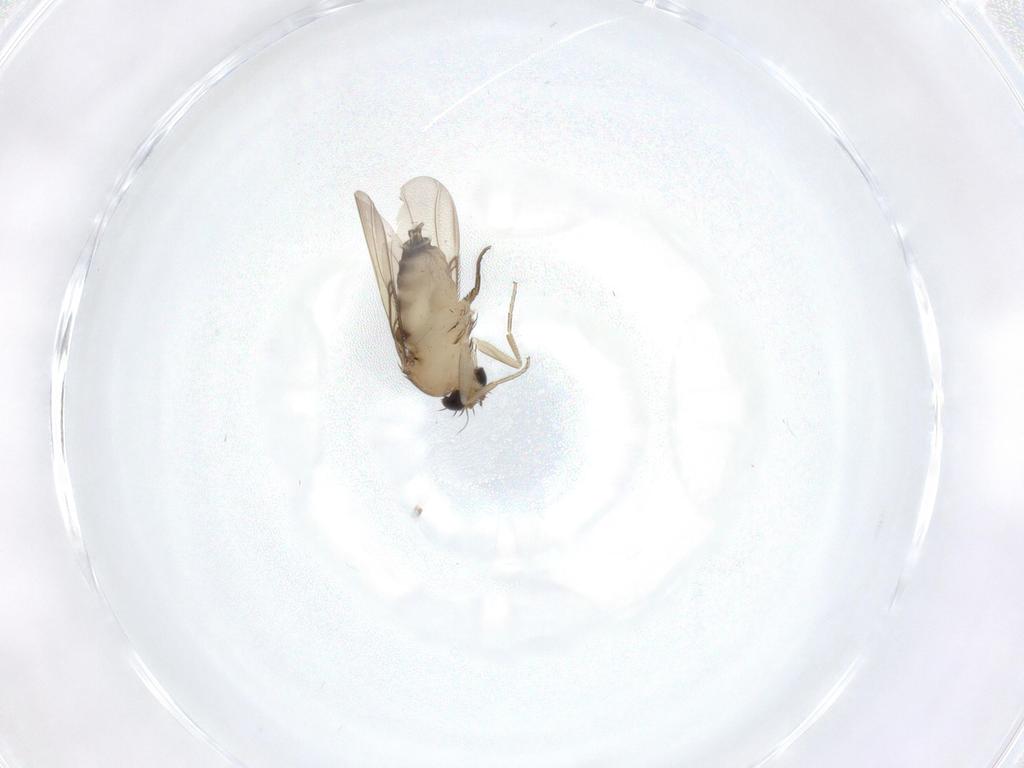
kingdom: Animalia
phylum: Arthropoda
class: Insecta
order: Diptera
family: Phoridae
